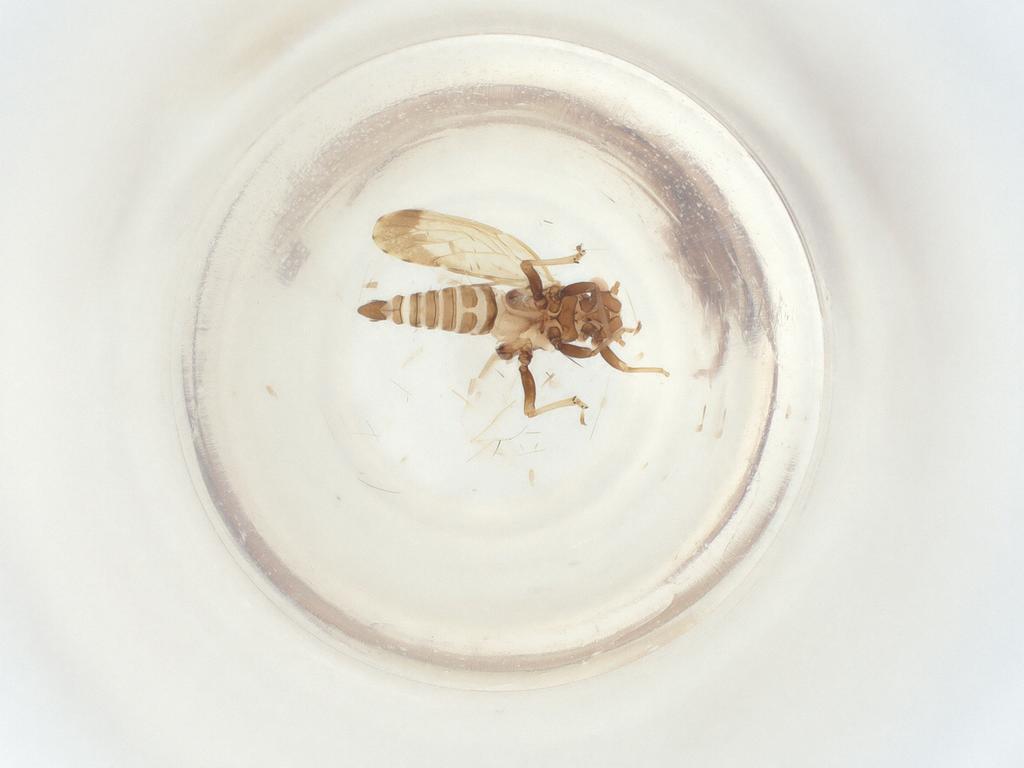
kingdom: Animalia
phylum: Arthropoda
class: Insecta
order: Hemiptera
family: Psyllidae
